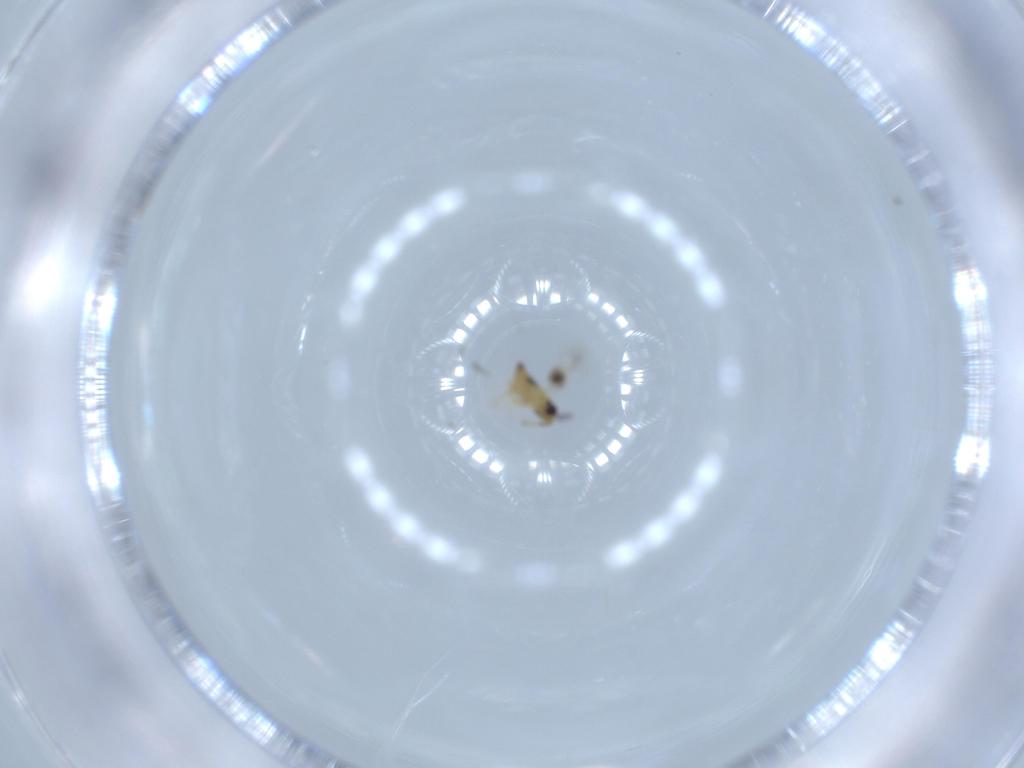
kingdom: Animalia
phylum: Arthropoda
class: Insecta
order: Hymenoptera
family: Signiphoridae
